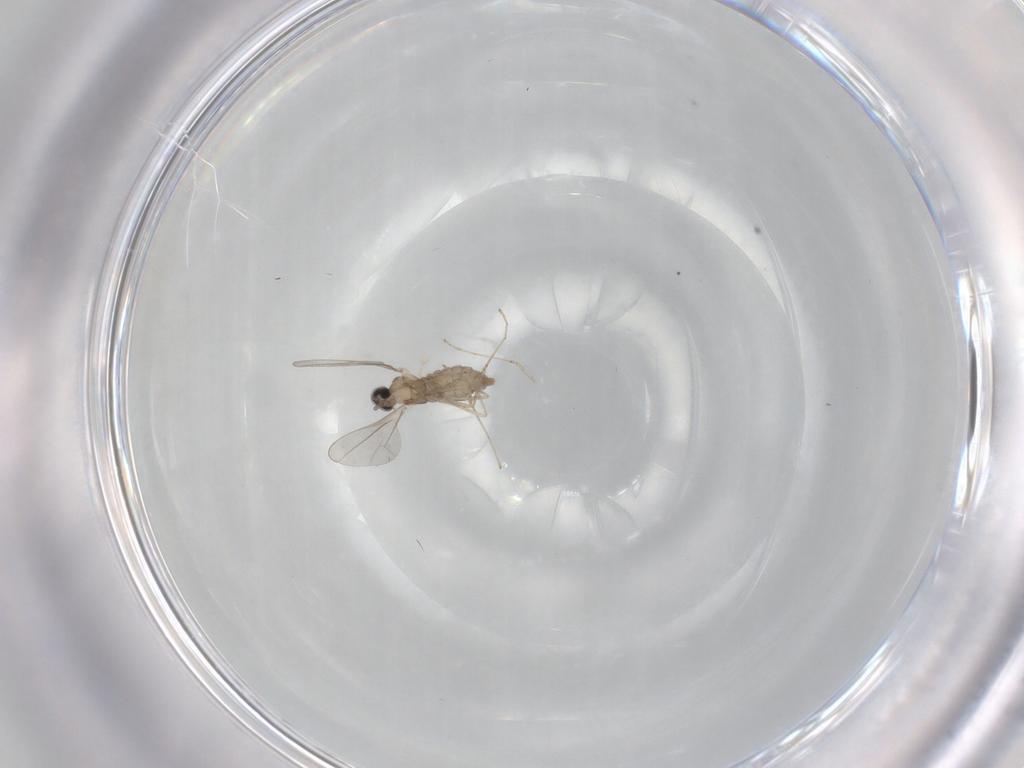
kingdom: Animalia
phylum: Arthropoda
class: Insecta
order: Diptera
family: Cecidomyiidae
